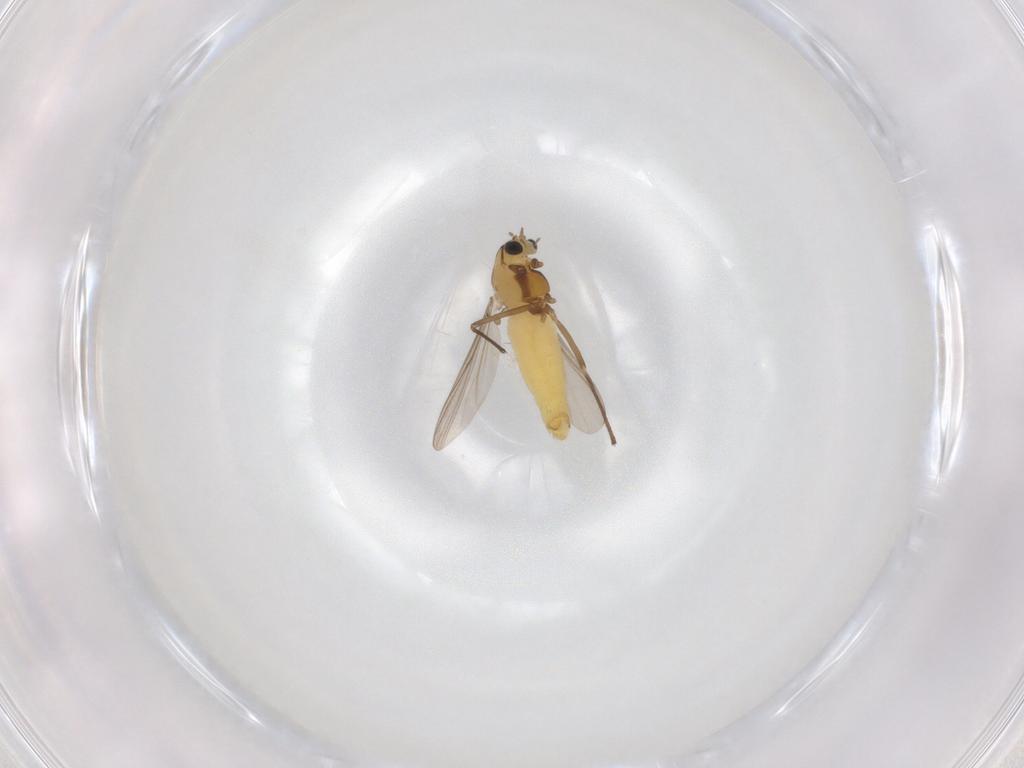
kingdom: Animalia
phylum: Arthropoda
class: Insecta
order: Diptera
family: Chironomidae
